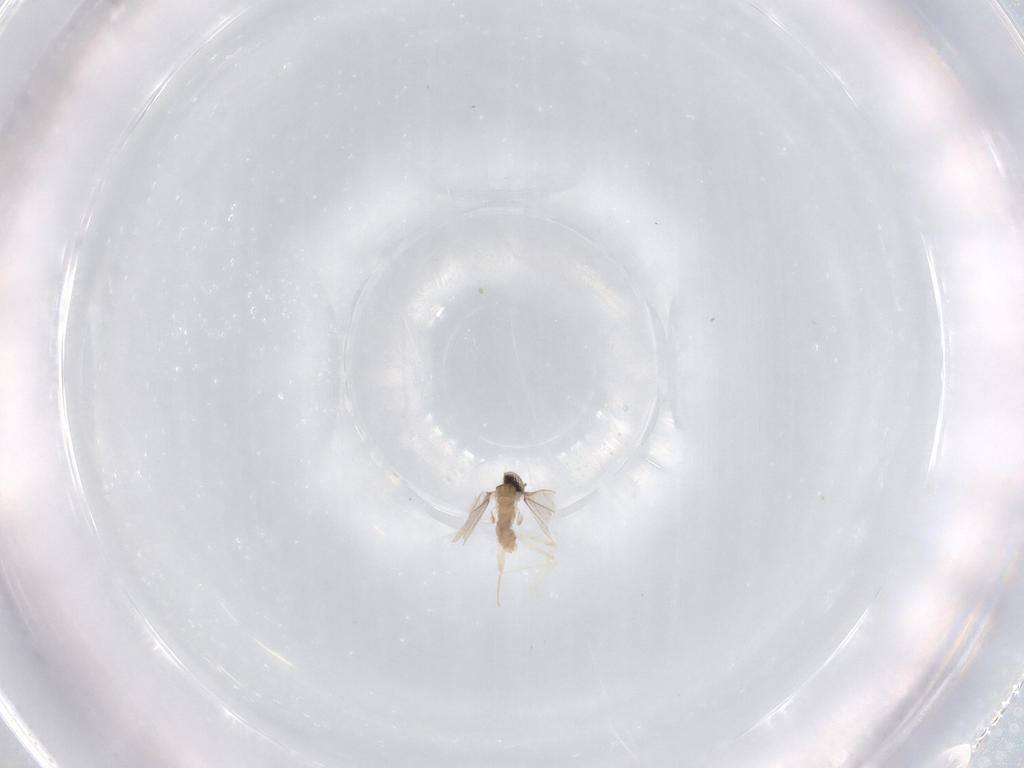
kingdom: Animalia
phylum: Arthropoda
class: Insecta
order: Diptera
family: Cecidomyiidae
